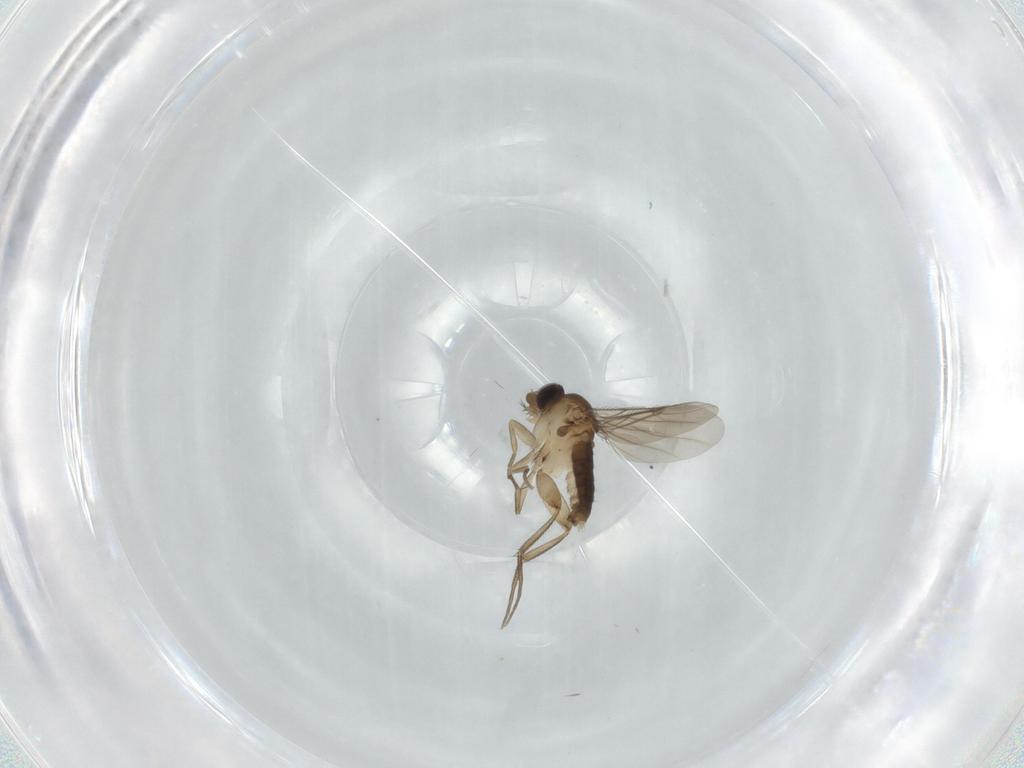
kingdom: Animalia
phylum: Arthropoda
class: Insecta
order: Diptera
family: Phoridae
